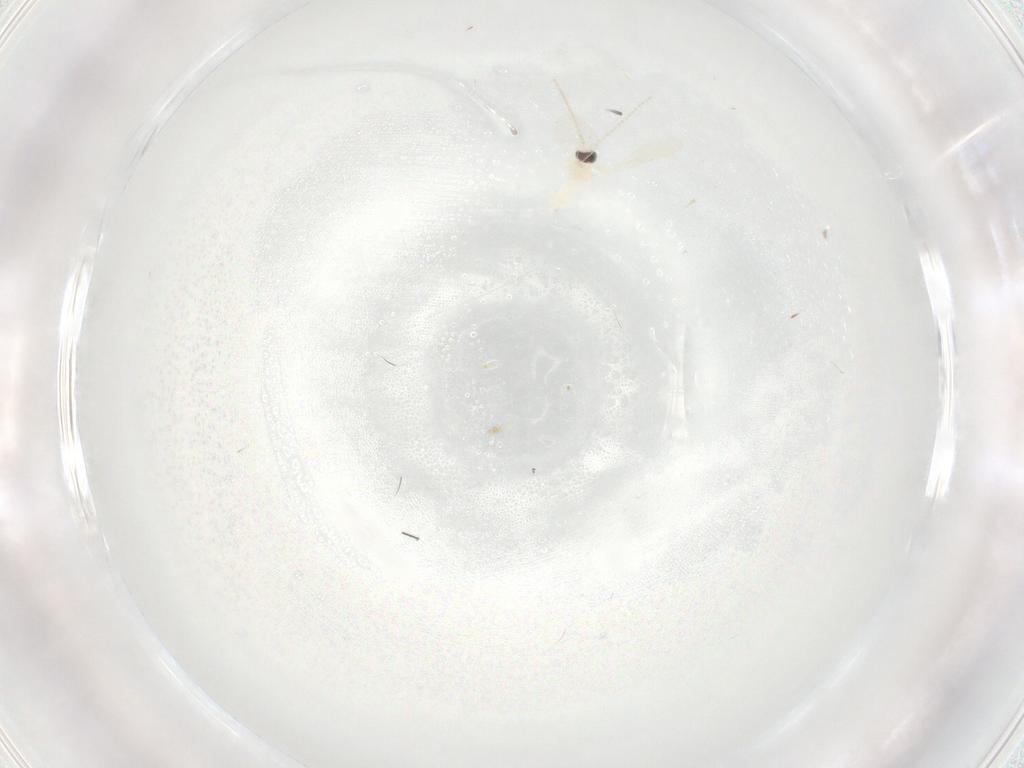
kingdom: Animalia
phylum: Arthropoda
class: Insecta
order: Diptera
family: Cecidomyiidae
